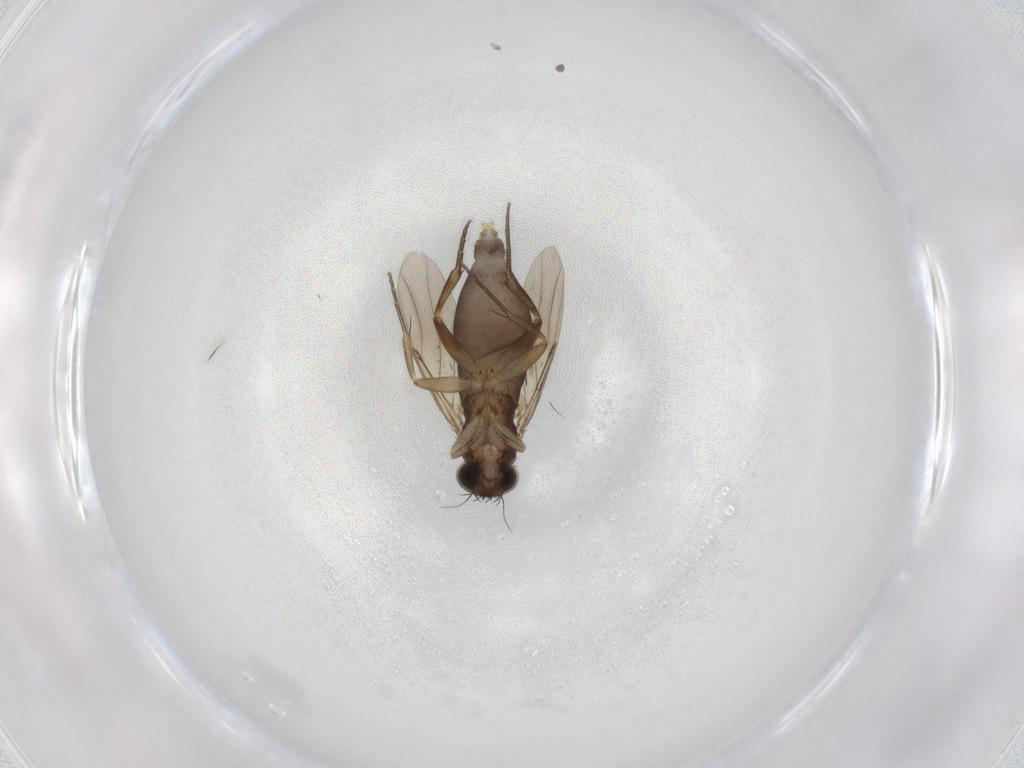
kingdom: Animalia
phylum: Arthropoda
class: Insecta
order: Diptera
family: Phoridae
